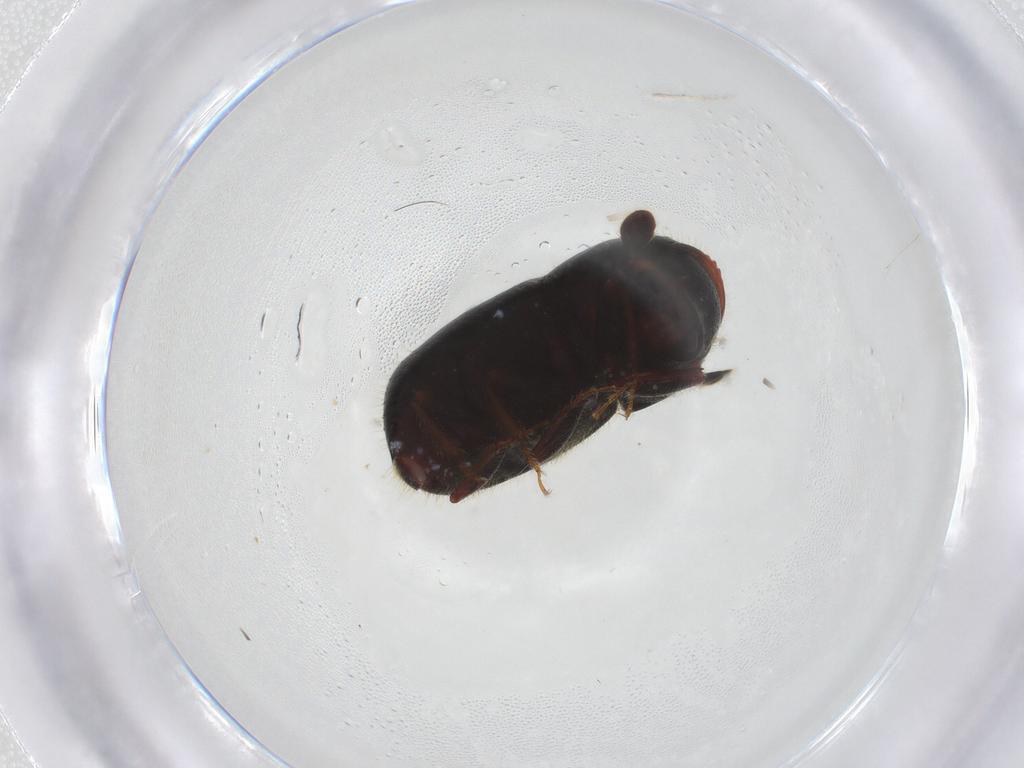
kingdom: Animalia
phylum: Arthropoda
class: Insecta
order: Coleoptera
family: Curculionidae
